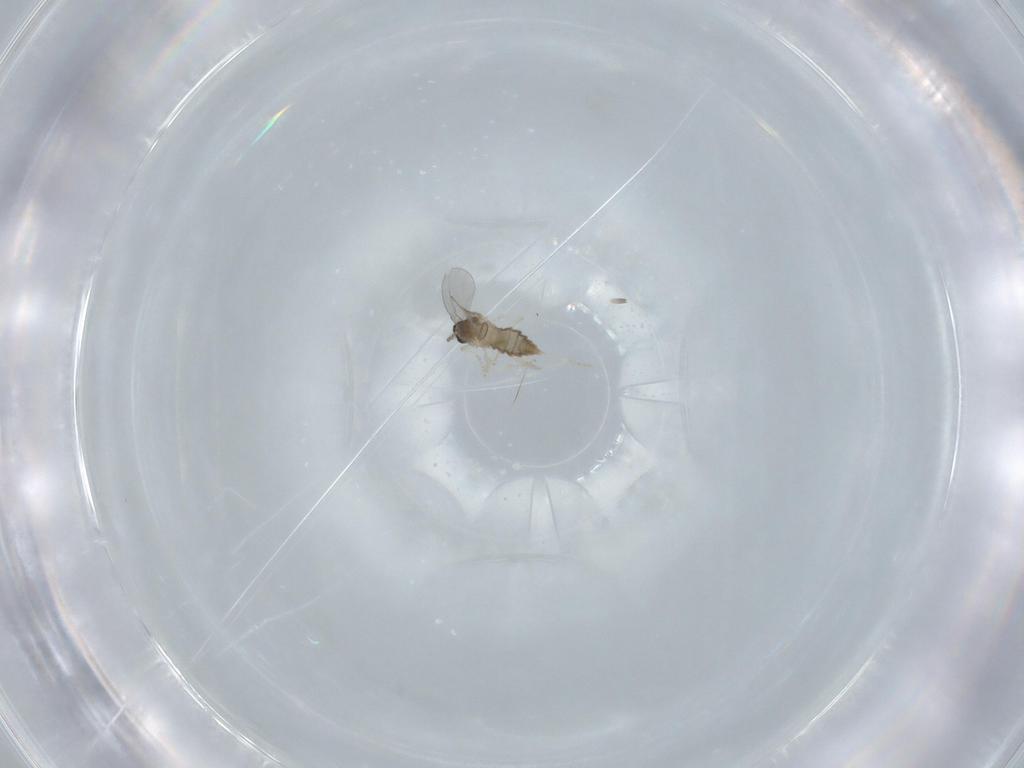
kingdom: Animalia
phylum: Arthropoda
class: Insecta
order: Diptera
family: Cecidomyiidae
